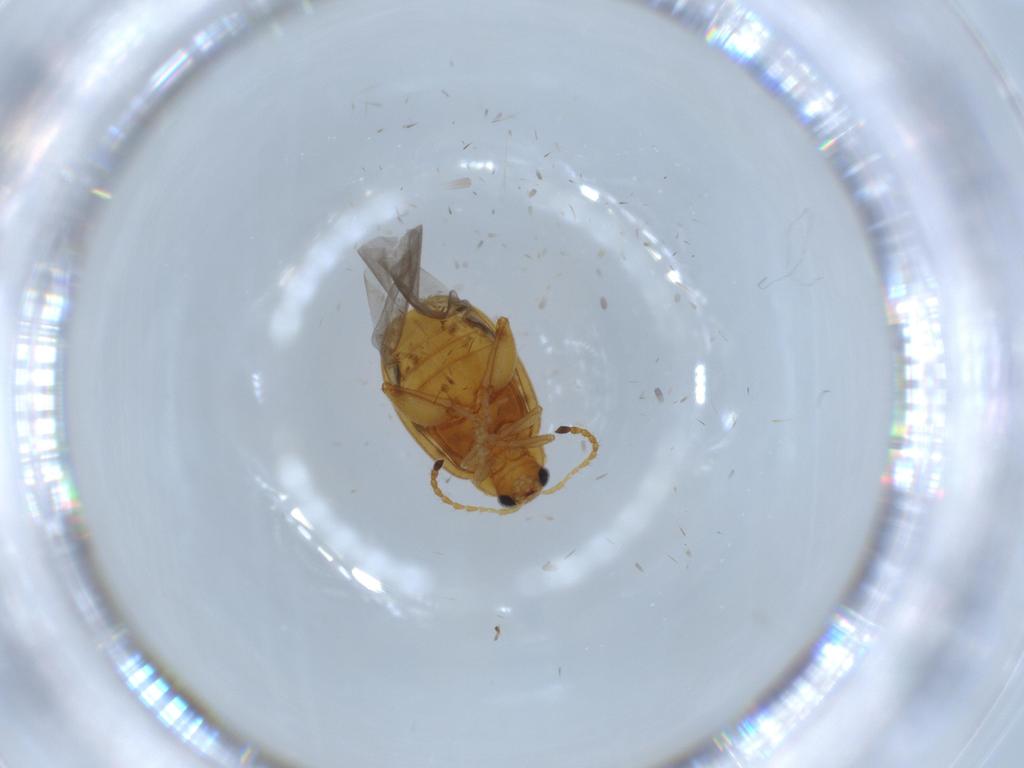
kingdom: Animalia
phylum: Arthropoda
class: Insecta
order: Coleoptera
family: Chrysomelidae
